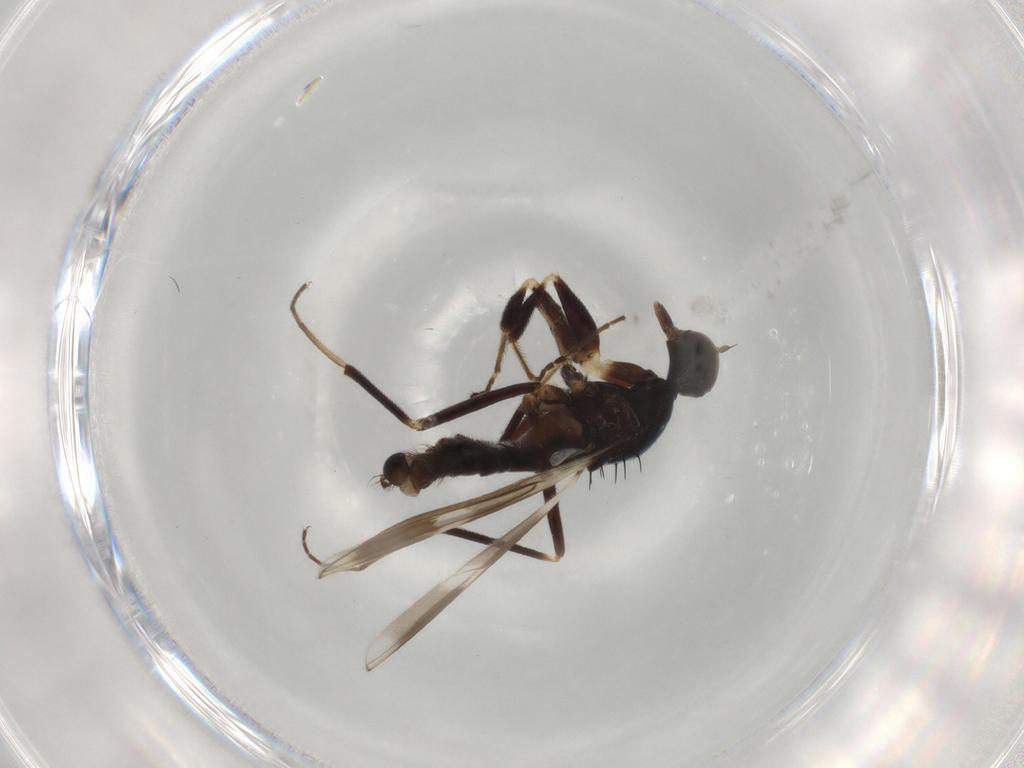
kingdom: Animalia
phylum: Arthropoda
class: Insecta
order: Diptera
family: Hybotidae
